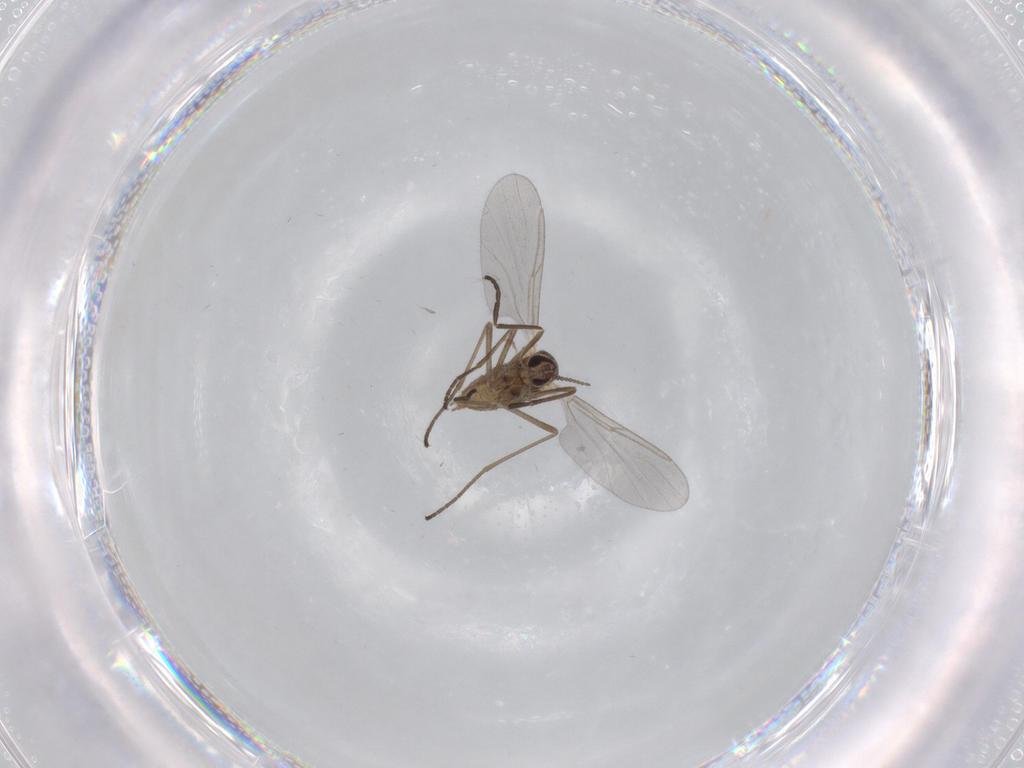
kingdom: Animalia
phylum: Arthropoda
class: Insecta
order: Diptera
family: Cecidomyiidae
